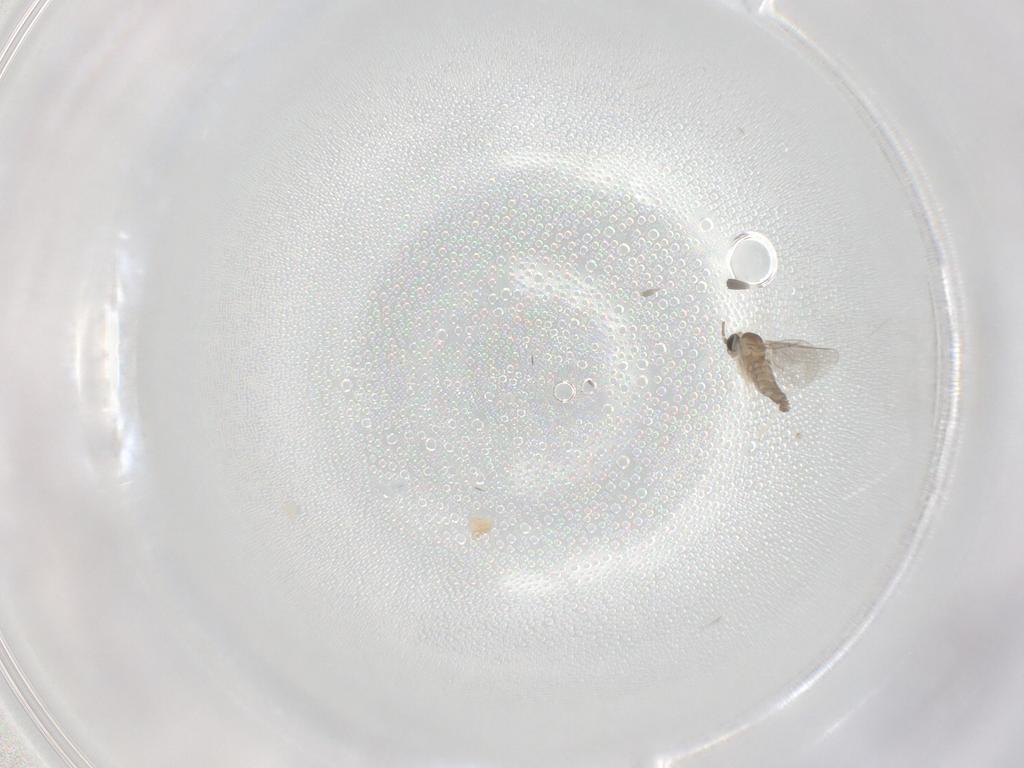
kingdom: Animalia
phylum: Arthropoda
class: Insecta
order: Diptera
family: Cecidomyiidae
